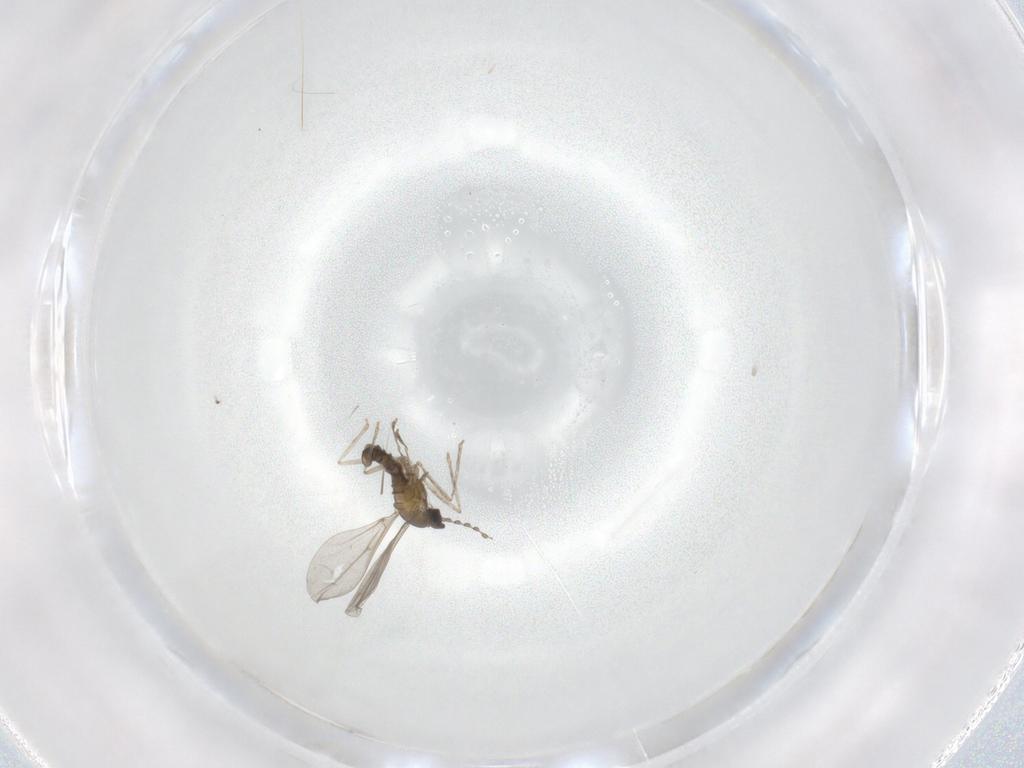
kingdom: Animalia
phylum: Arthropoda
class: Insecta
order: Diptera
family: Cecidomyiidae
